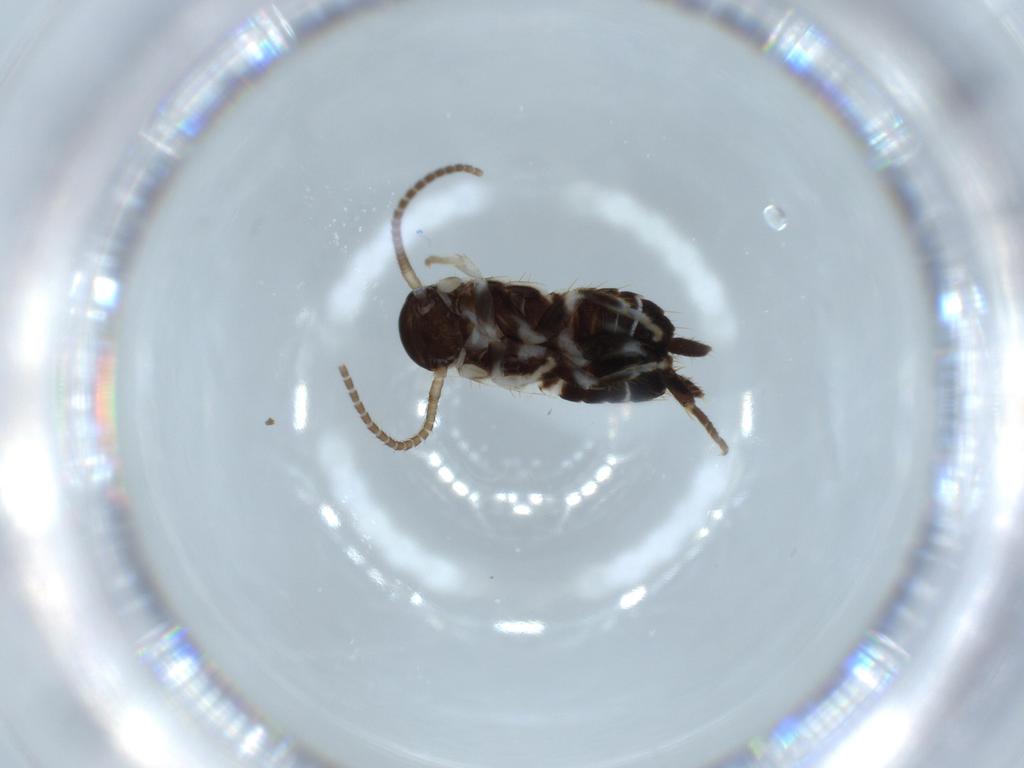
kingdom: Animalia
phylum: Arthropoda
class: Insecta
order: Blattodea
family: Ectobiidae
